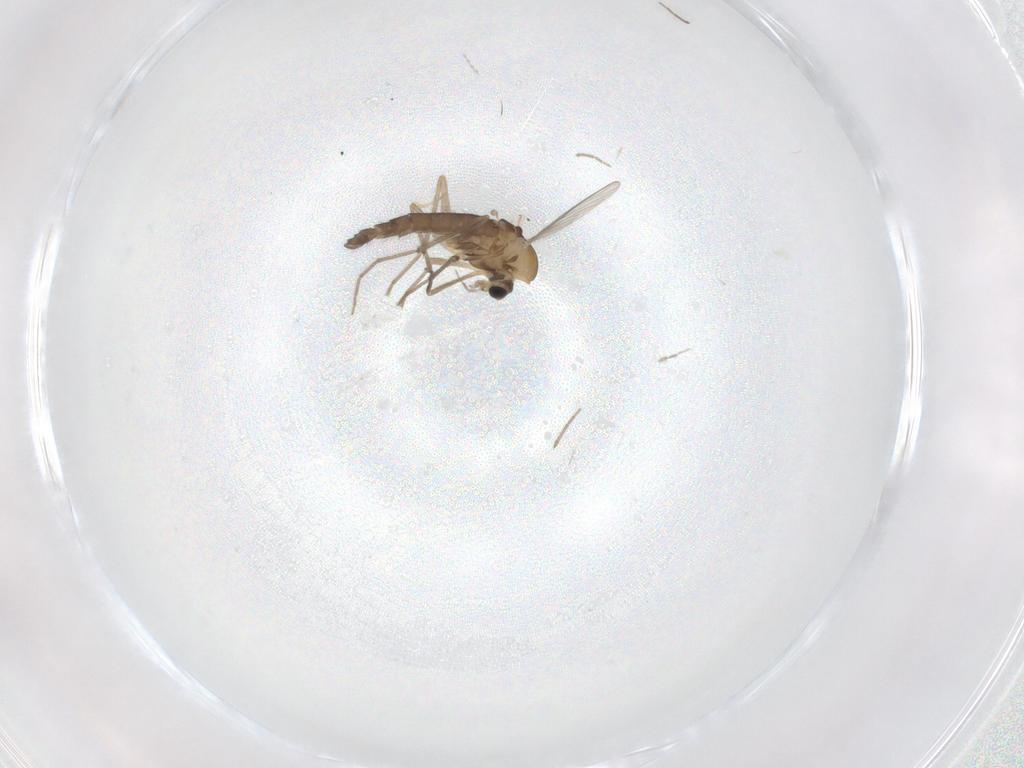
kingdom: Animalia
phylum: Arthropoda
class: Insecta
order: Diptera
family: Chironomidae
